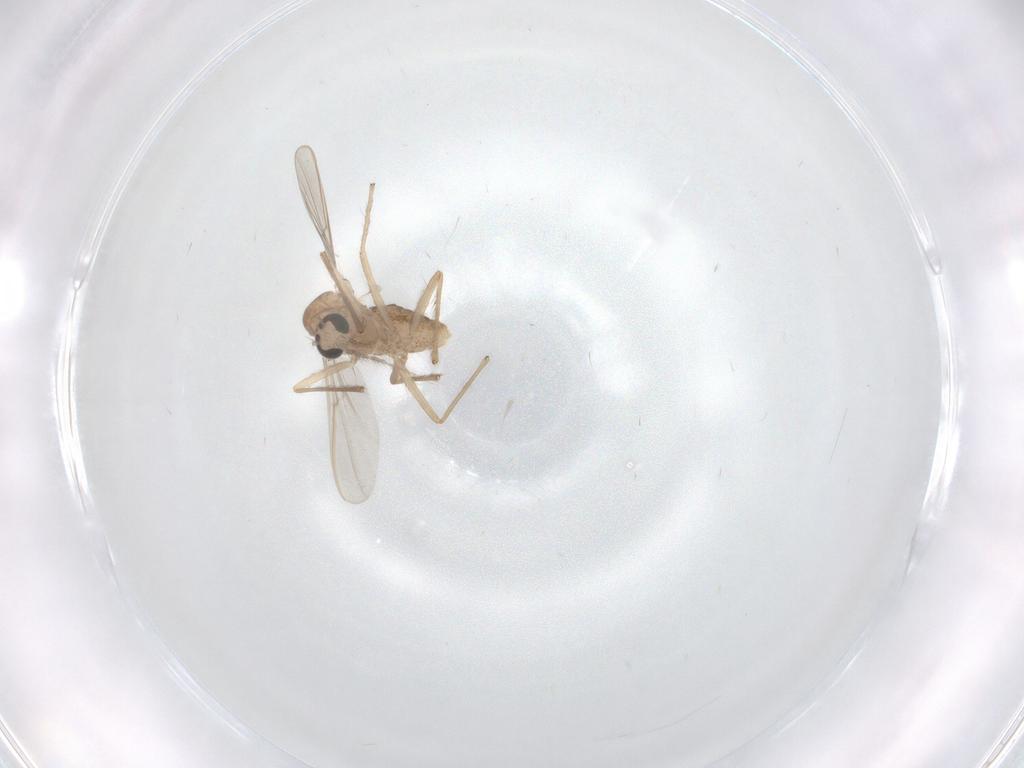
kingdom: Animalia
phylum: Arthropoda
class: Insecta
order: Diptera
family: Chironomidae
